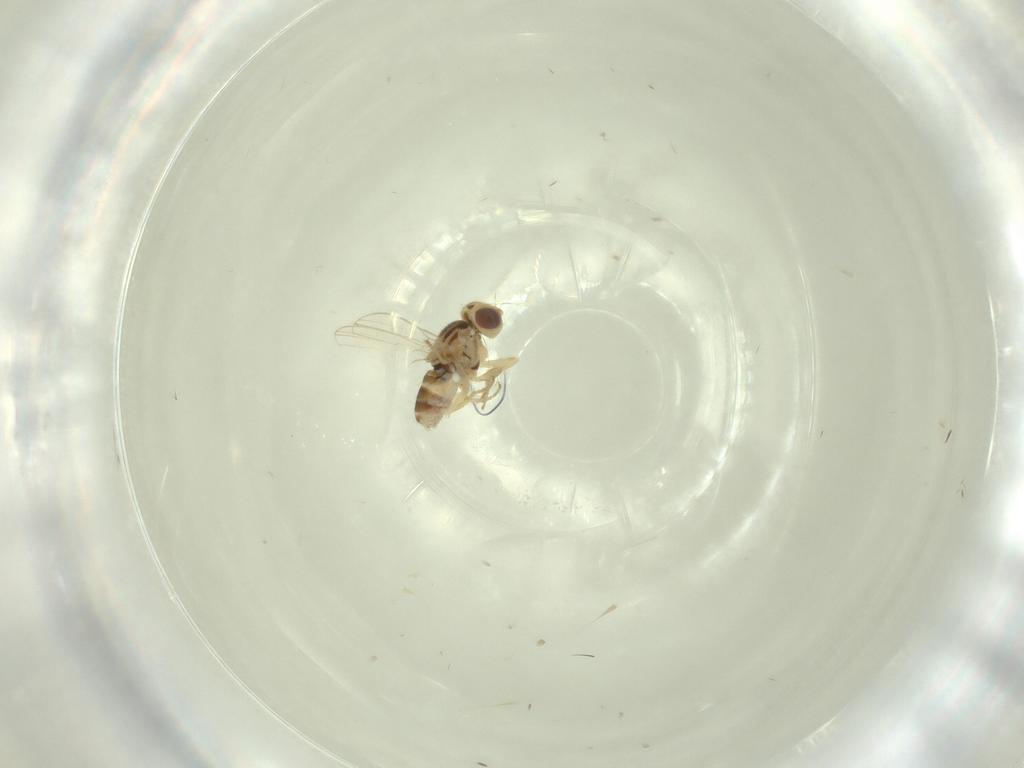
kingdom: Animalia
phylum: Arthropoda
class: Insecta
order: Diptera
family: Chyromyidae
